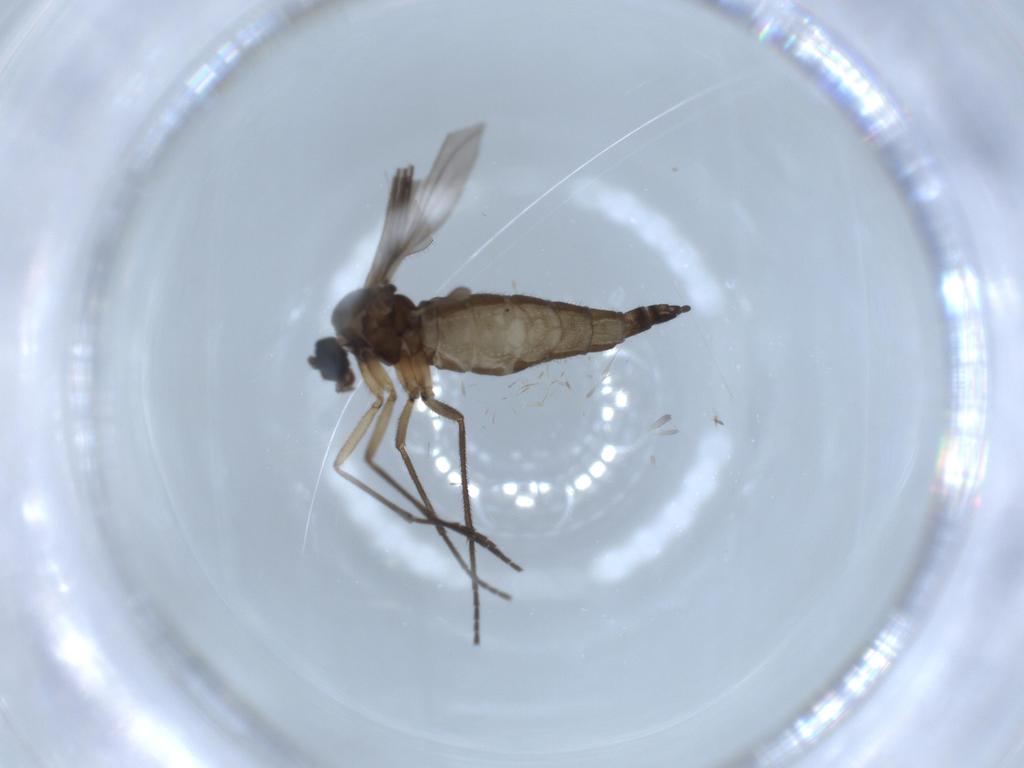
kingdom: Animalia
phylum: Arthropoda
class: Insecta
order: Diptera
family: Sciaridae
